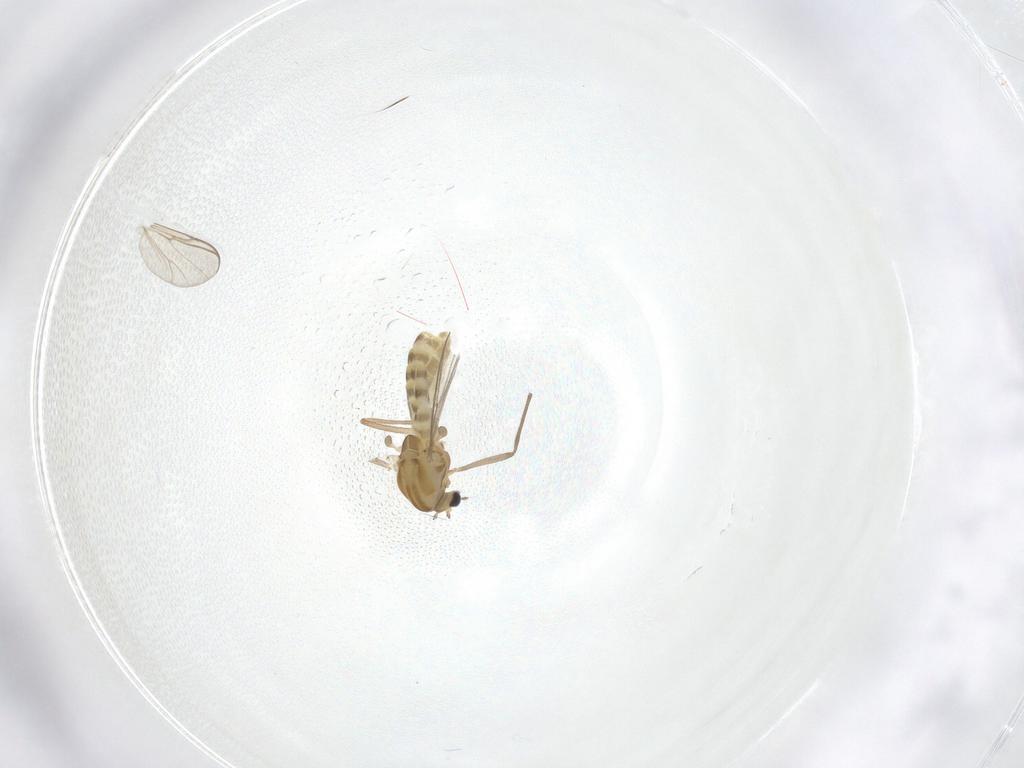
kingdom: Animalia
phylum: Arthropoda
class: Insecta
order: Diptera
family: Chironomidae
